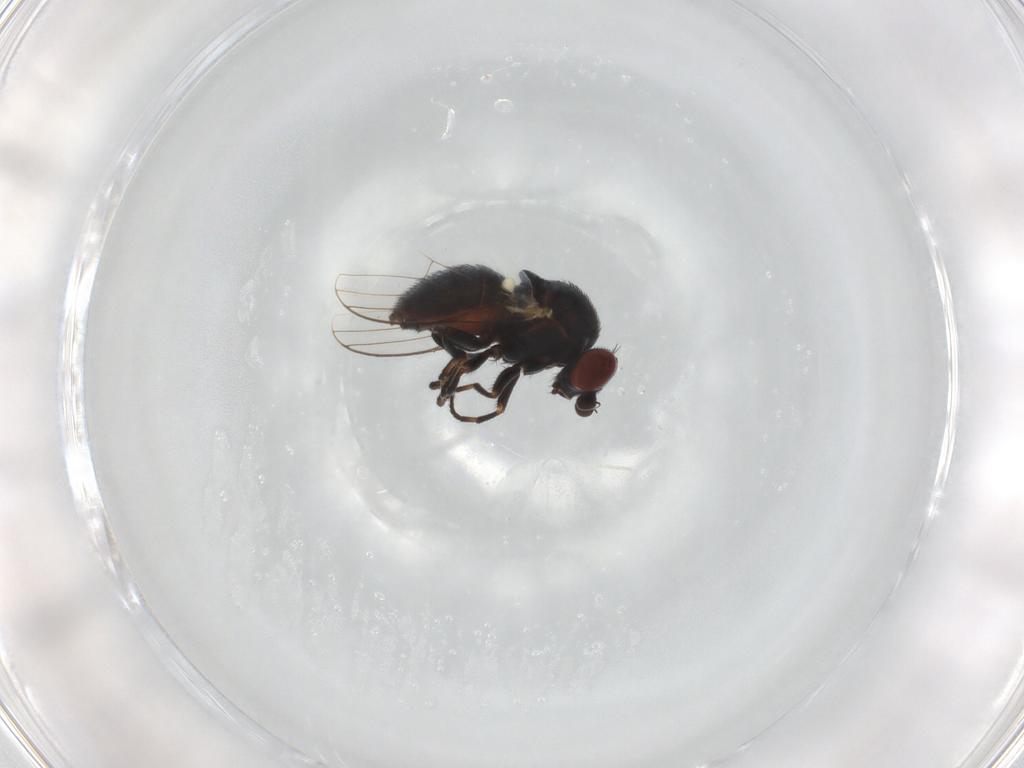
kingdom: Animalia
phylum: Arthropoda
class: Insecta
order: Diptera
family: Chamaemyiidae
